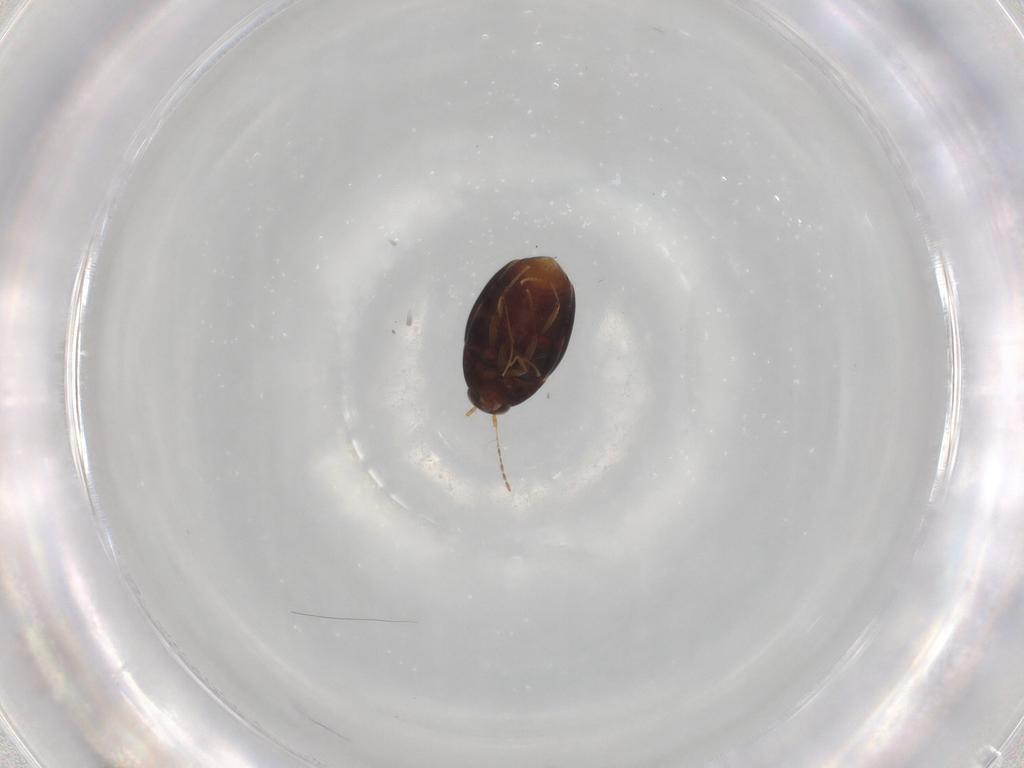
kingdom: Animalia
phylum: Arthropoda
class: Insecta
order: Coleoptera
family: Staphylinidae
